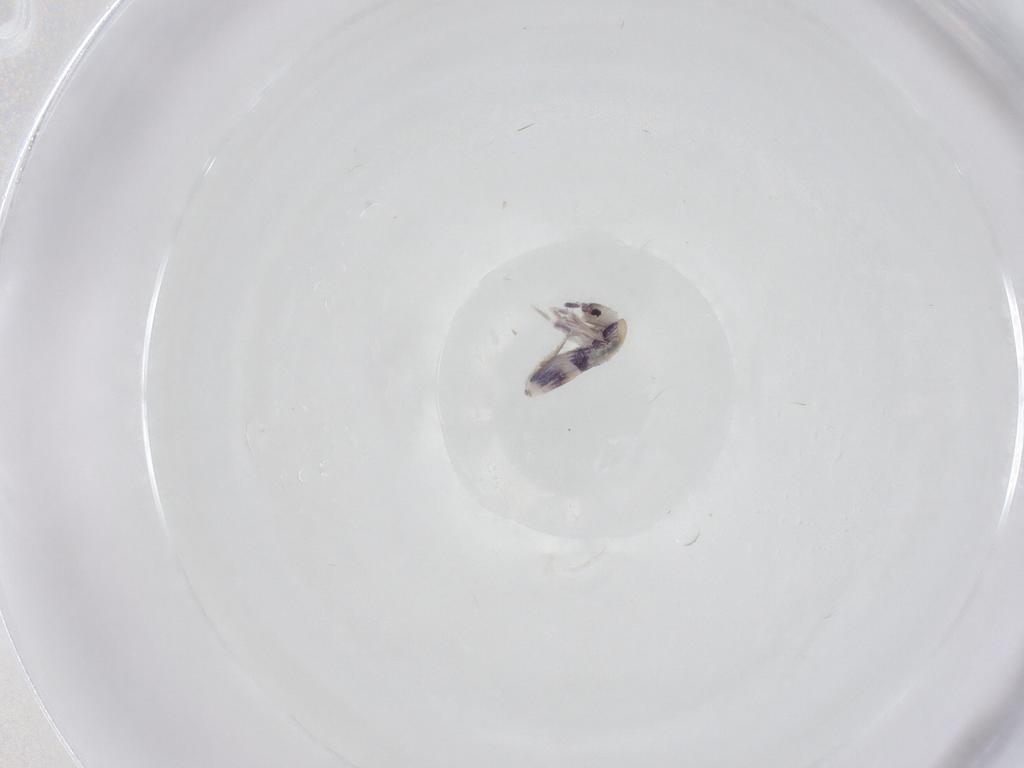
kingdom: Animalia
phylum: Arthropoda
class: Collembola
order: Entomobryomorpha
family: Entomobryidae
